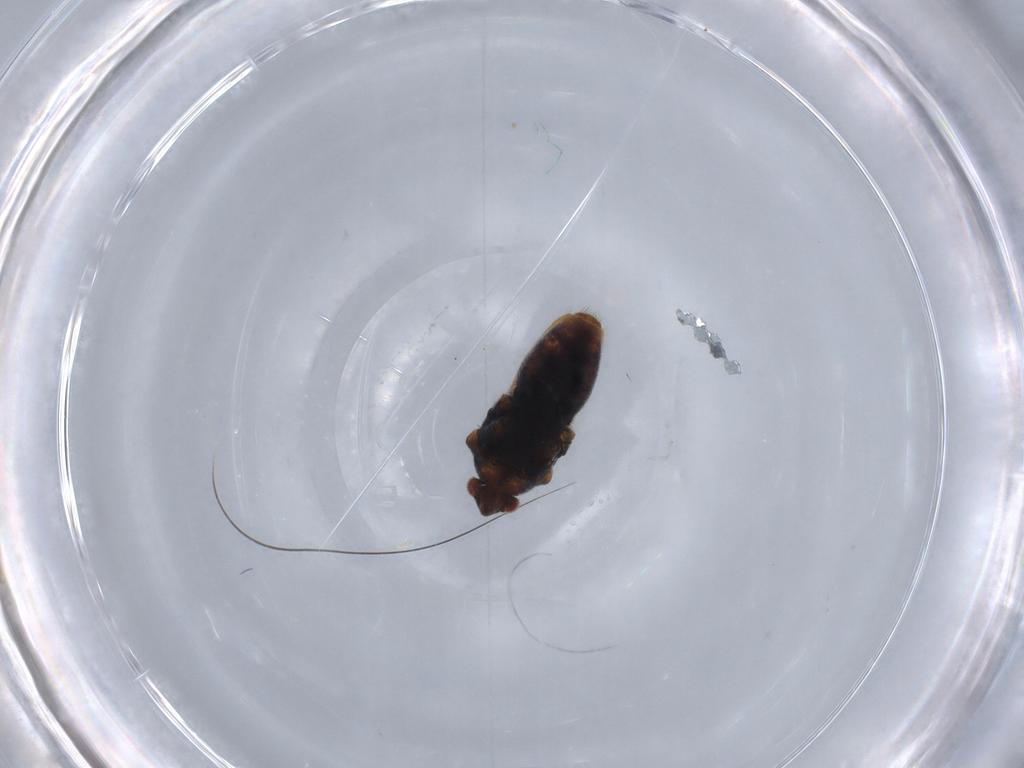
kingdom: Animalia
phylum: Arthropoda
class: Insecta
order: Hemiptera
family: Veliidae
